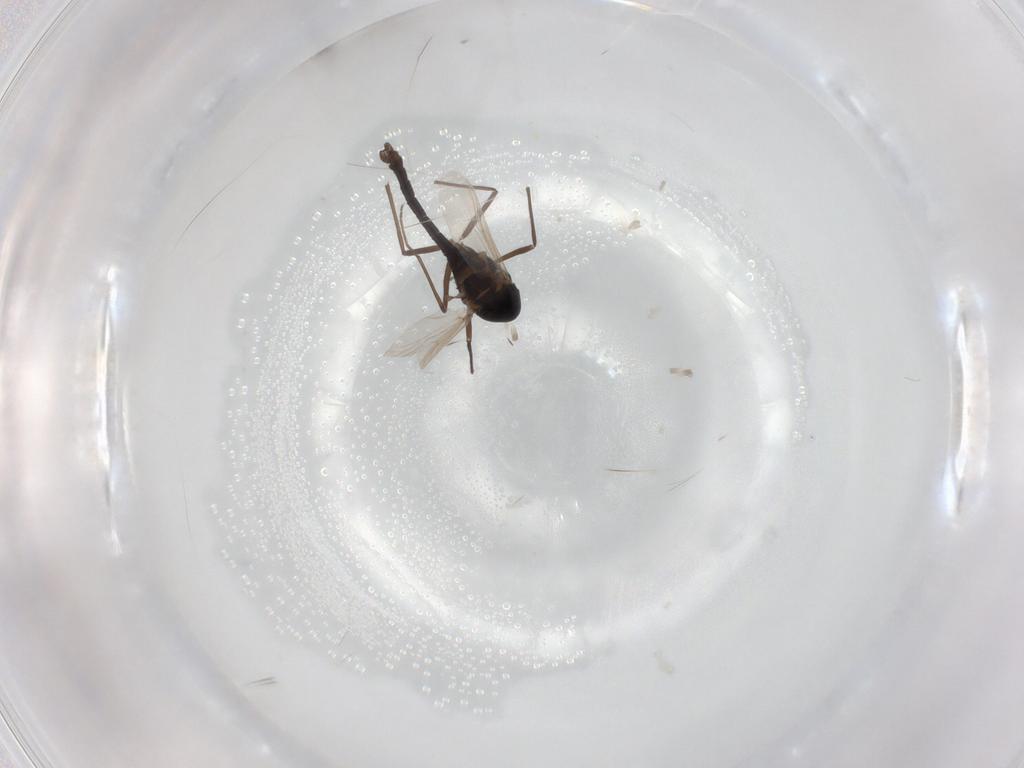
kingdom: Animalia
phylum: Arthropoda
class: Insecta
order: Diptera
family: Chironomidae
